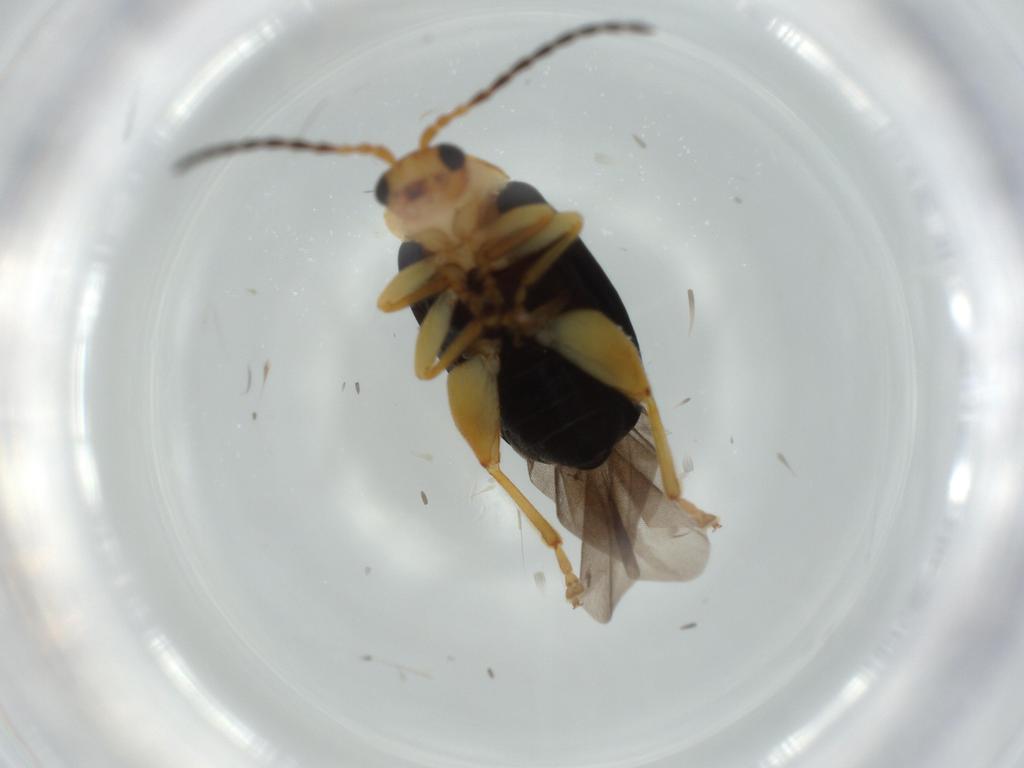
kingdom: Animalia
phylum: Arthropoda
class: Insecta
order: Coleoptera
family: Chrysomelidae
